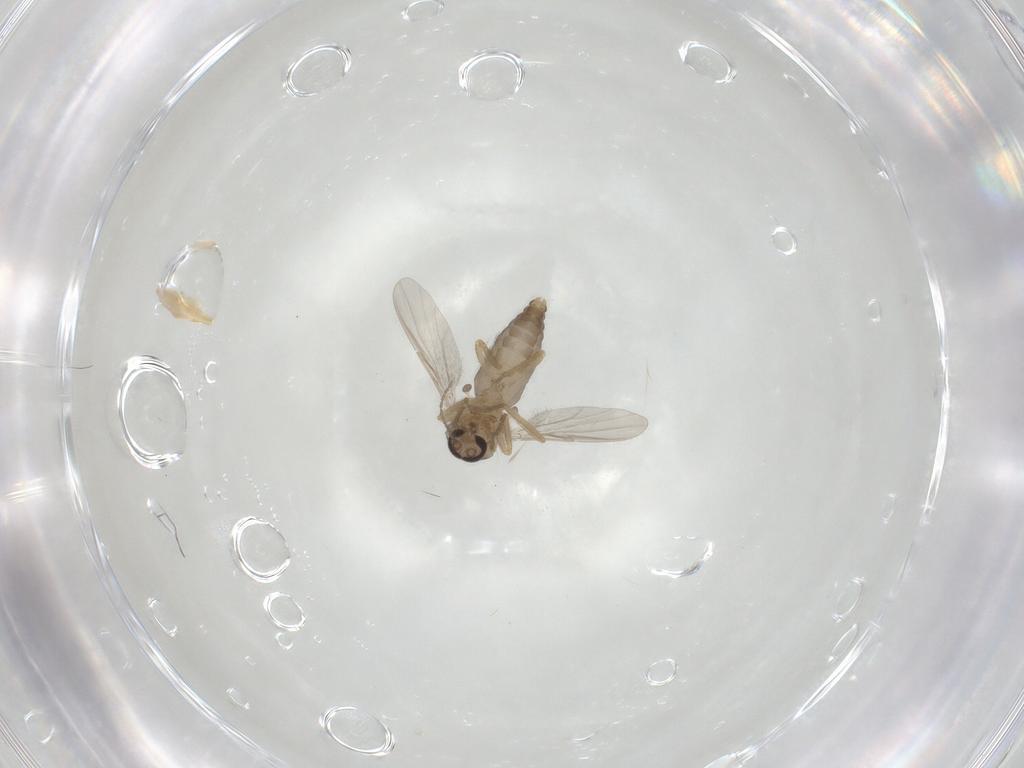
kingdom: Animalia
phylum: Arthropoda
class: Insecta
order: Diptera
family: Ceratopogonidae
